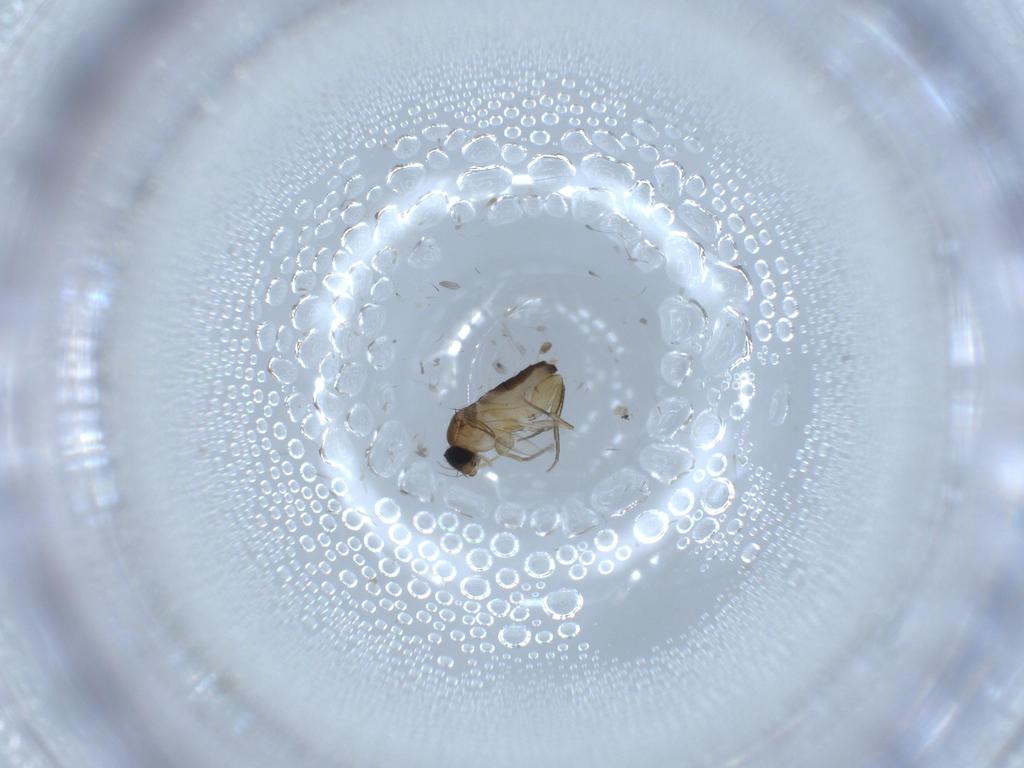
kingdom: Animalia
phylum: Arthropoda
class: Insecta
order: Diptera
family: Phoridae
